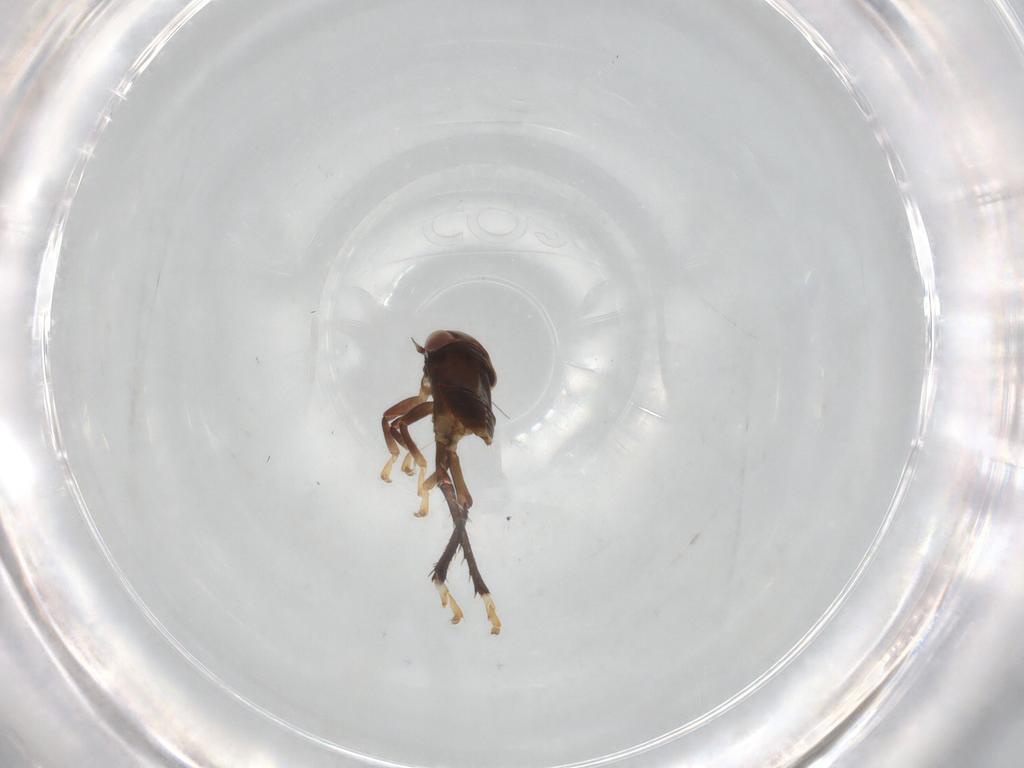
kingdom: Animalia
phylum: Arthropoda
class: Insecta
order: Hemiptera
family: Cicadellidae
